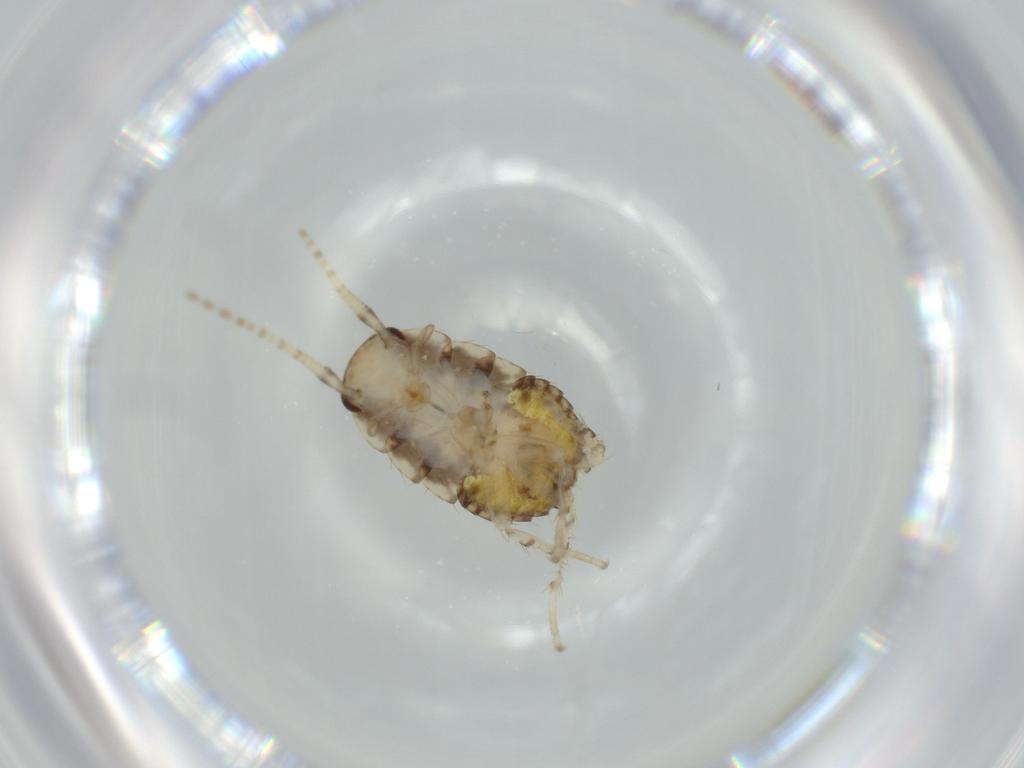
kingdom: Animalia
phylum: Arthropoda
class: Insecta
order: Blattodea
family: Ectobiidae
